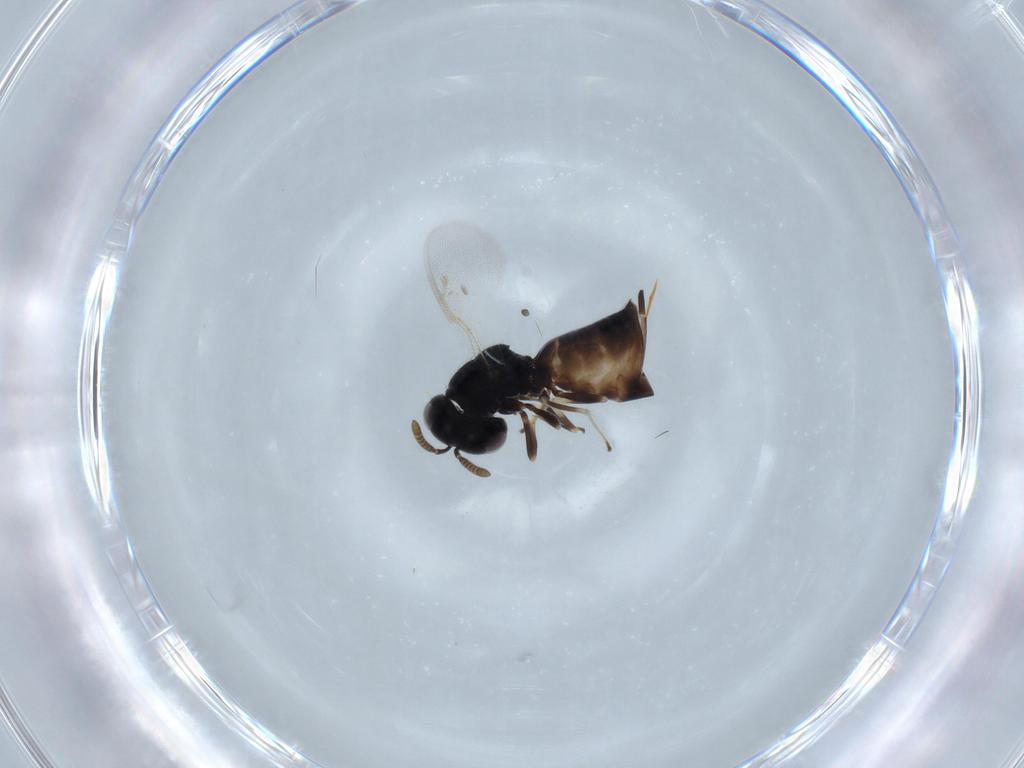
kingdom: Animalia
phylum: Arthropoda
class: Insecta
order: Hymenoptera
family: Pteromalidae
